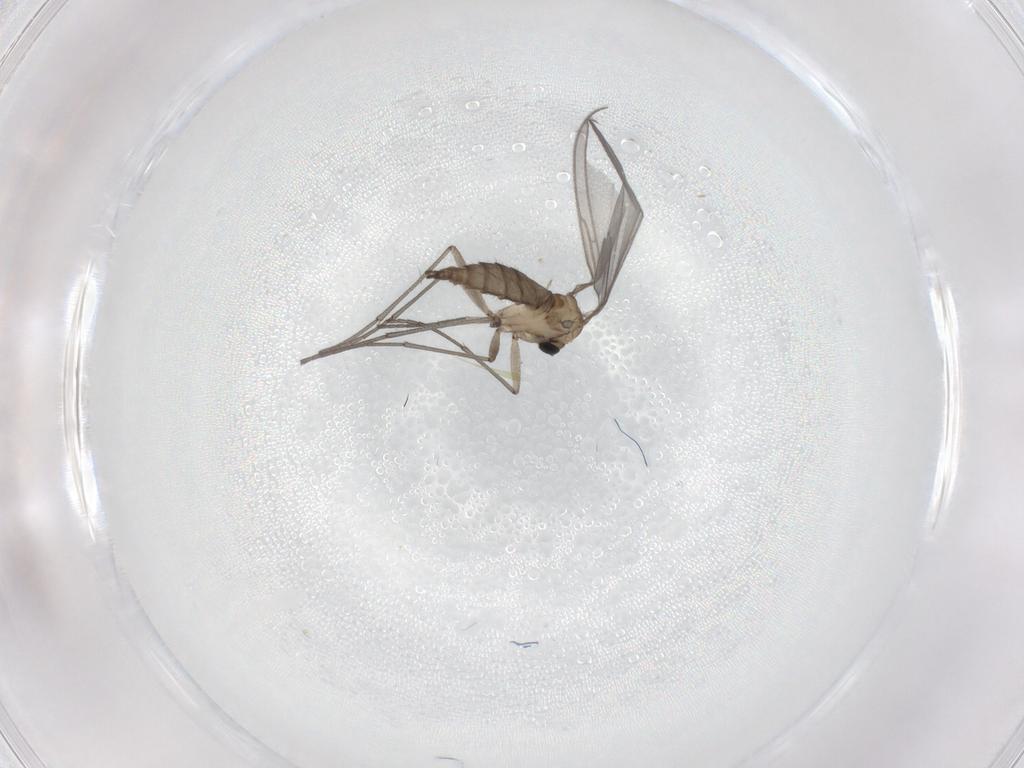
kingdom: Animalia
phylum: Arthropoda
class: Insecta
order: Diptera
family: Sciaridae
